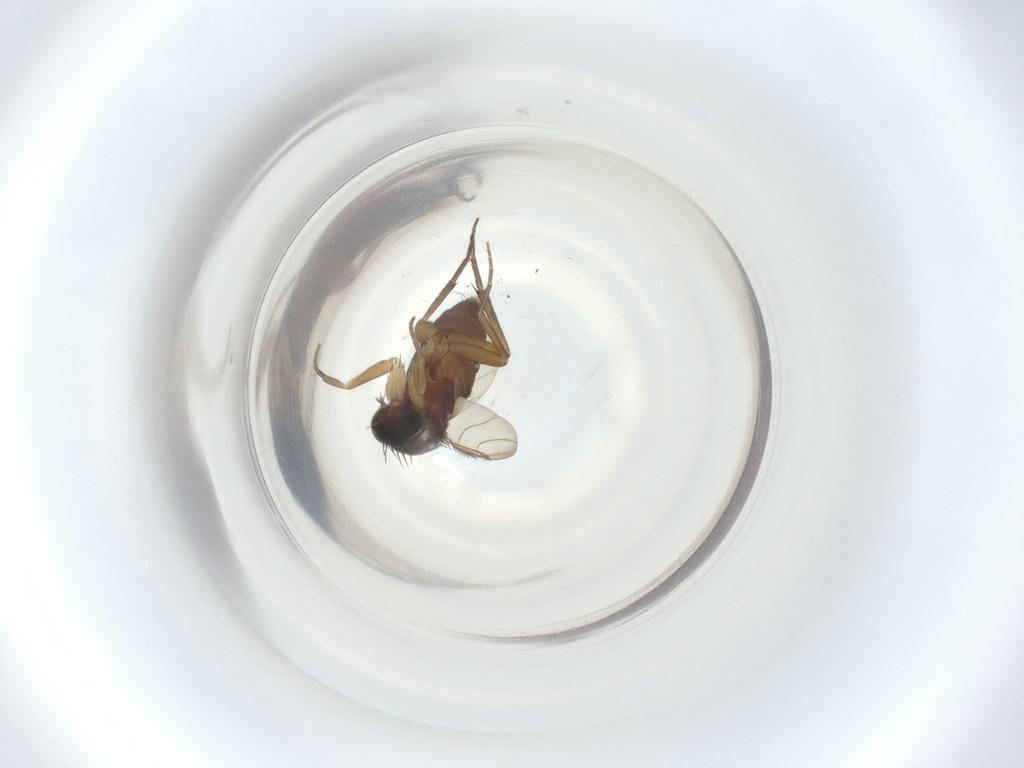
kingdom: Animalia
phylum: Arthropoda
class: Insecta
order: Diptera
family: Phoridae
